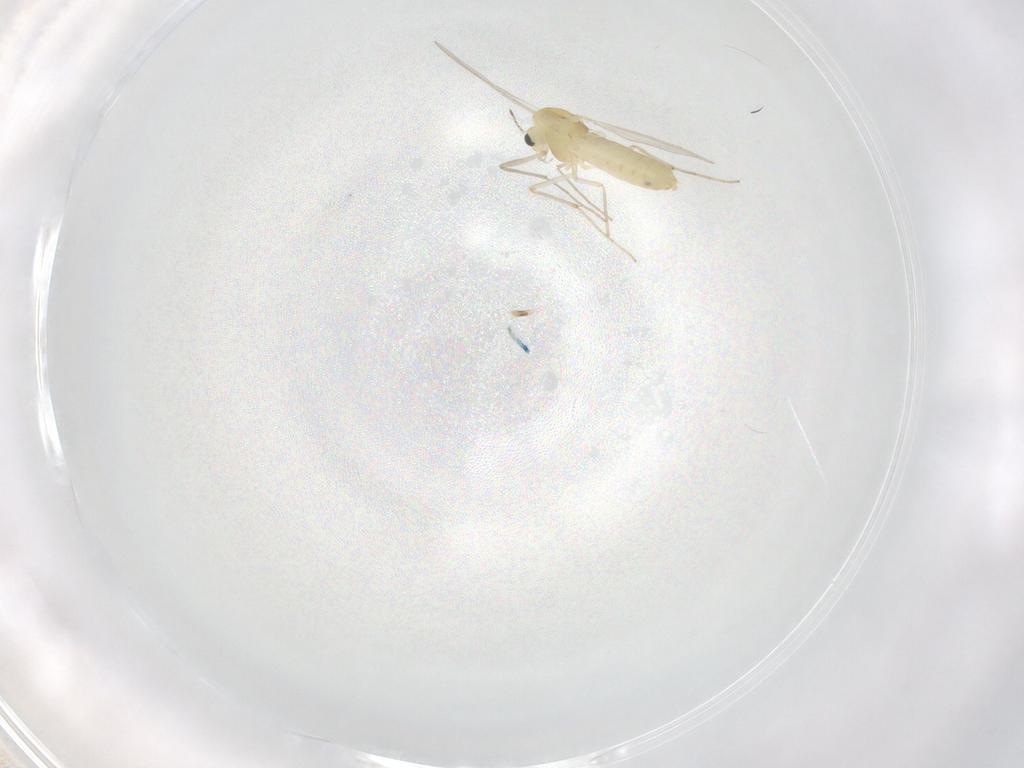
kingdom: Animalia
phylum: Arthropoda
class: Insecta
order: Diptera
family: Chironomidae
